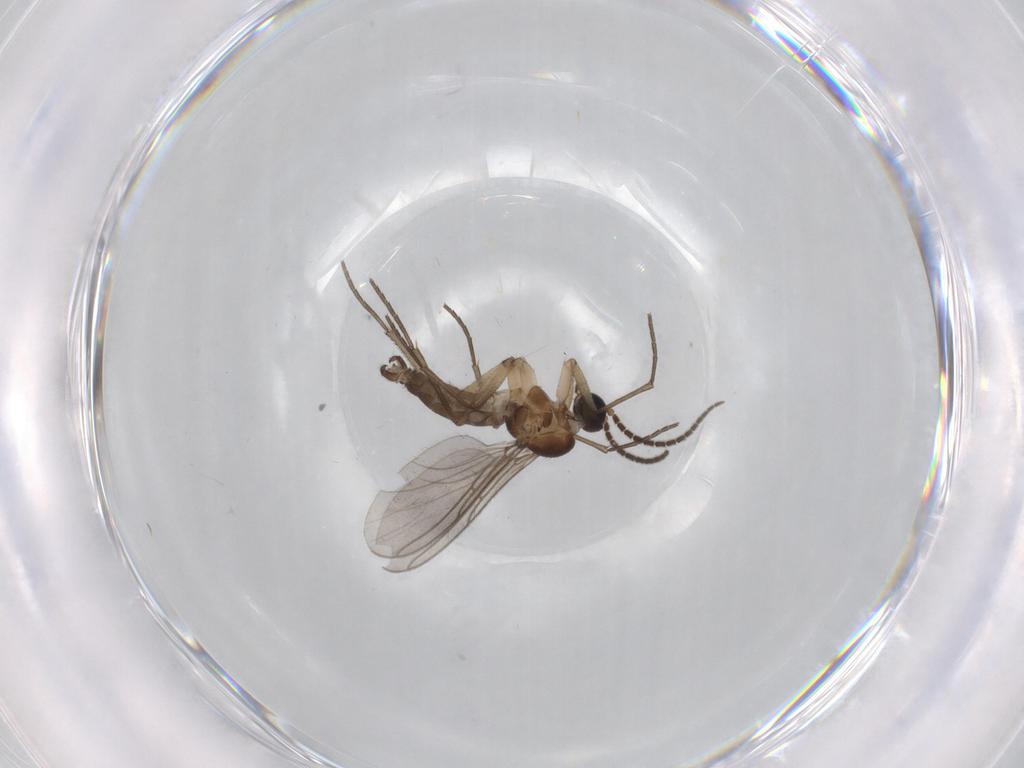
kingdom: Animalia
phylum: Arthropoda
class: Insecta
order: Diptera
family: Sciaridae
